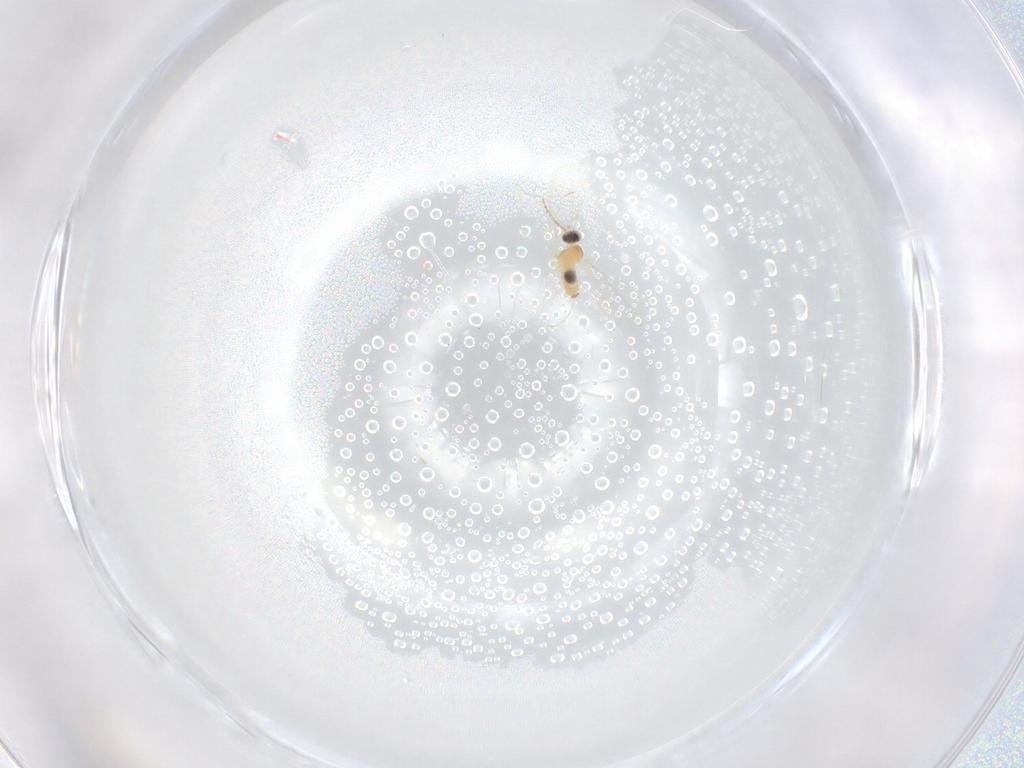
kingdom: Animalia
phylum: Arthropoda
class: Insecta
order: Diptera
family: Cecidomyiidae
